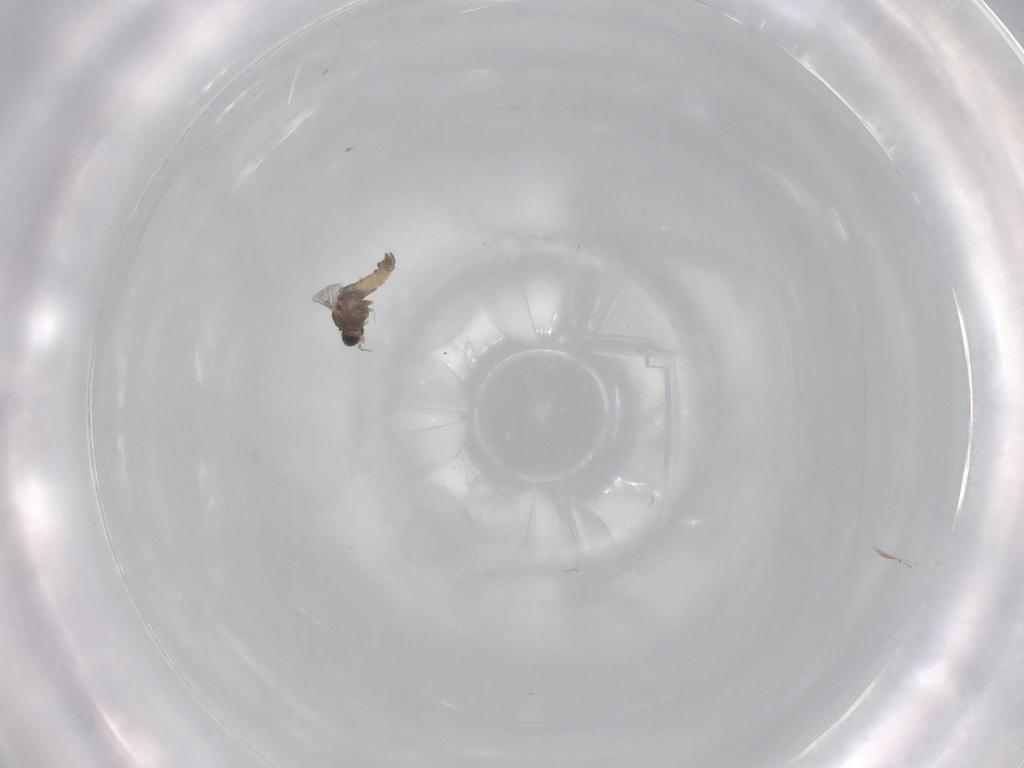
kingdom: Animalia
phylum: Arthropoda
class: Insecta
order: Diptera
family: Chironomidae
